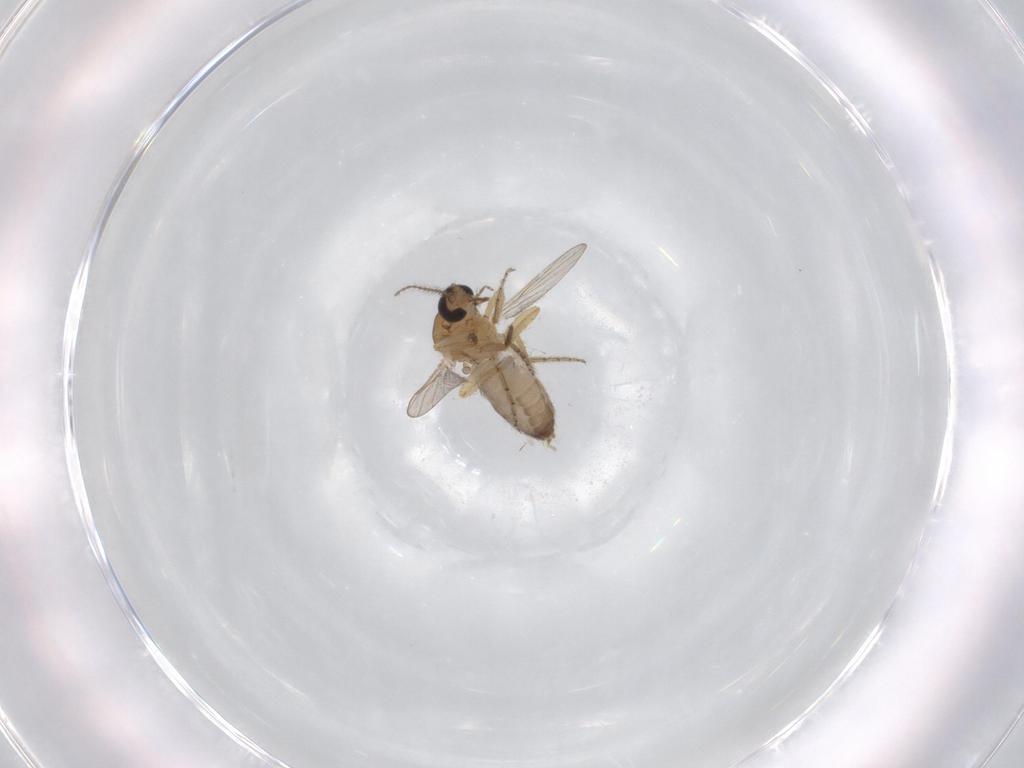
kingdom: Animalia
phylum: Arthropoda
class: Insecta
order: Diptera
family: Ceratopogonidae
